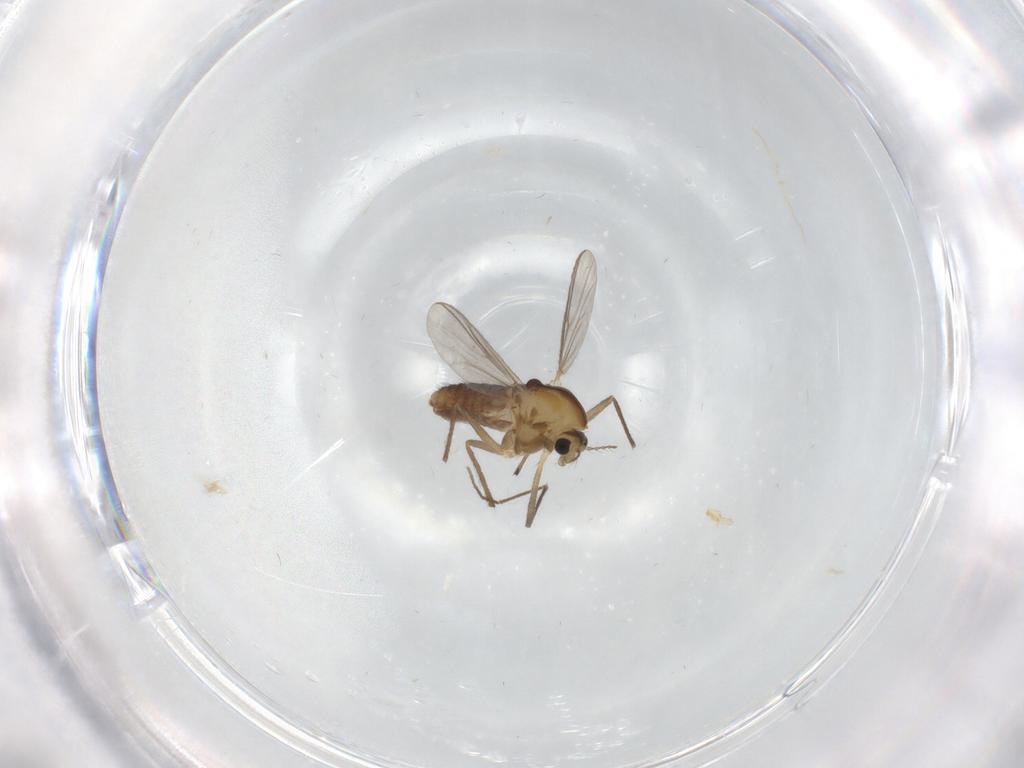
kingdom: Animalia
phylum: Arthropoda
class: Insecta
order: Diptera
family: Chironomidae
